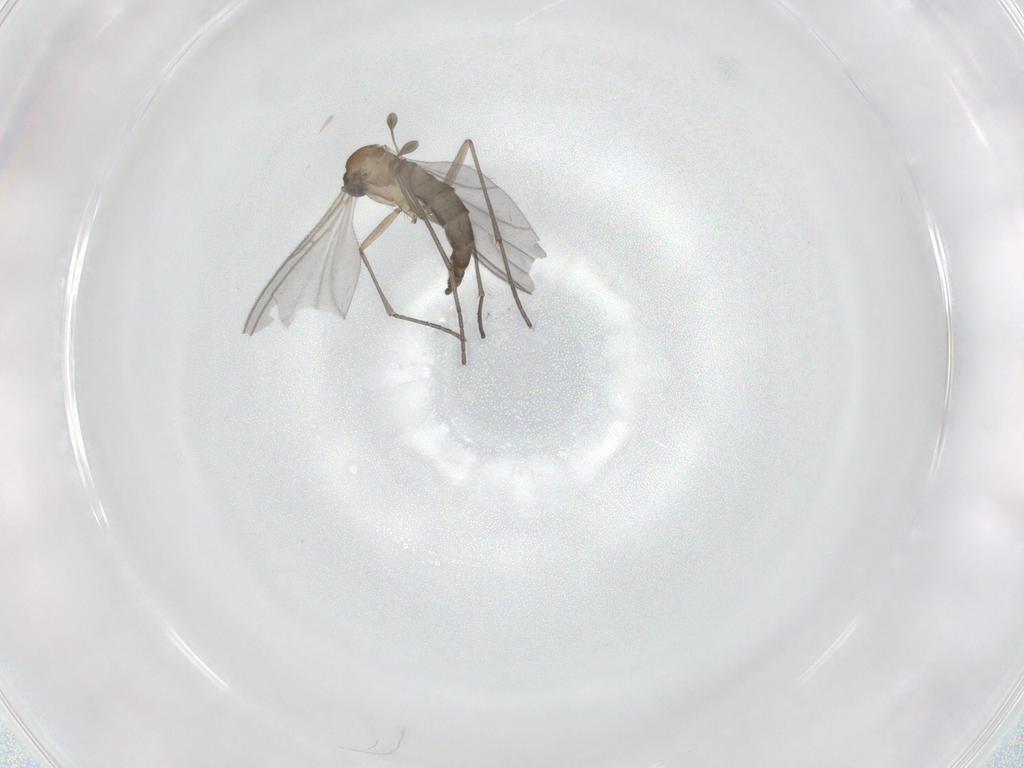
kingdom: Animalia
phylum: Arthropoda
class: Insecta
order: Diptera
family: Sciaridae
